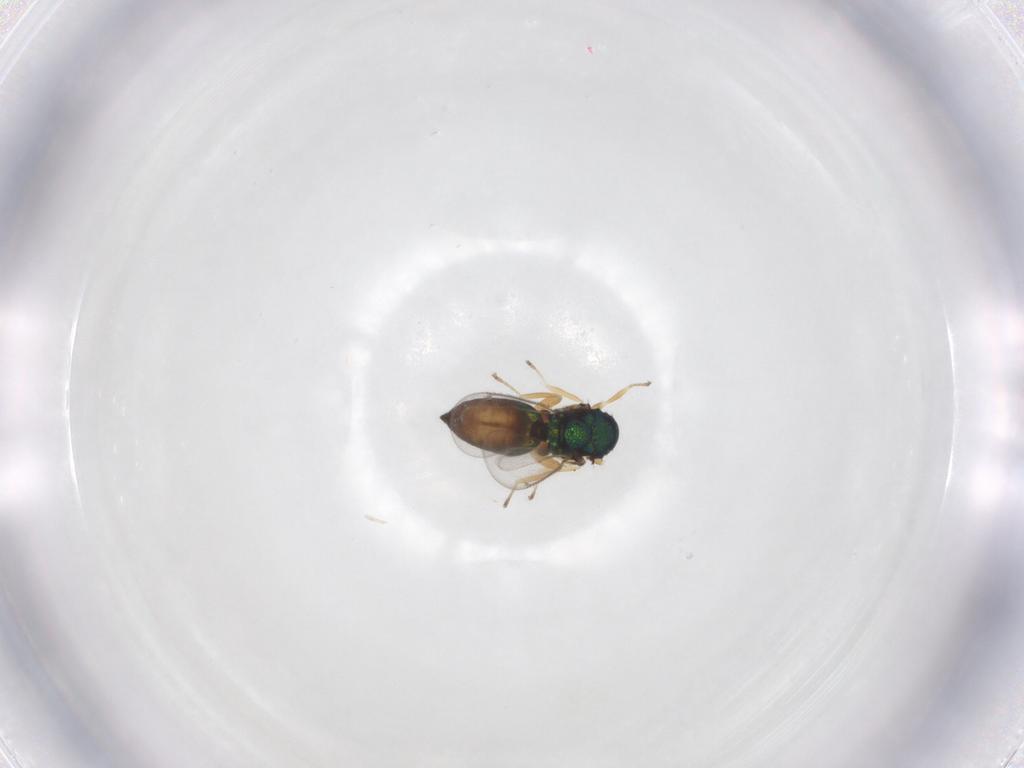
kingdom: Animalia
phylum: Arthropoda
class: Insecta
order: Hymenoptera
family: Eulophidae
